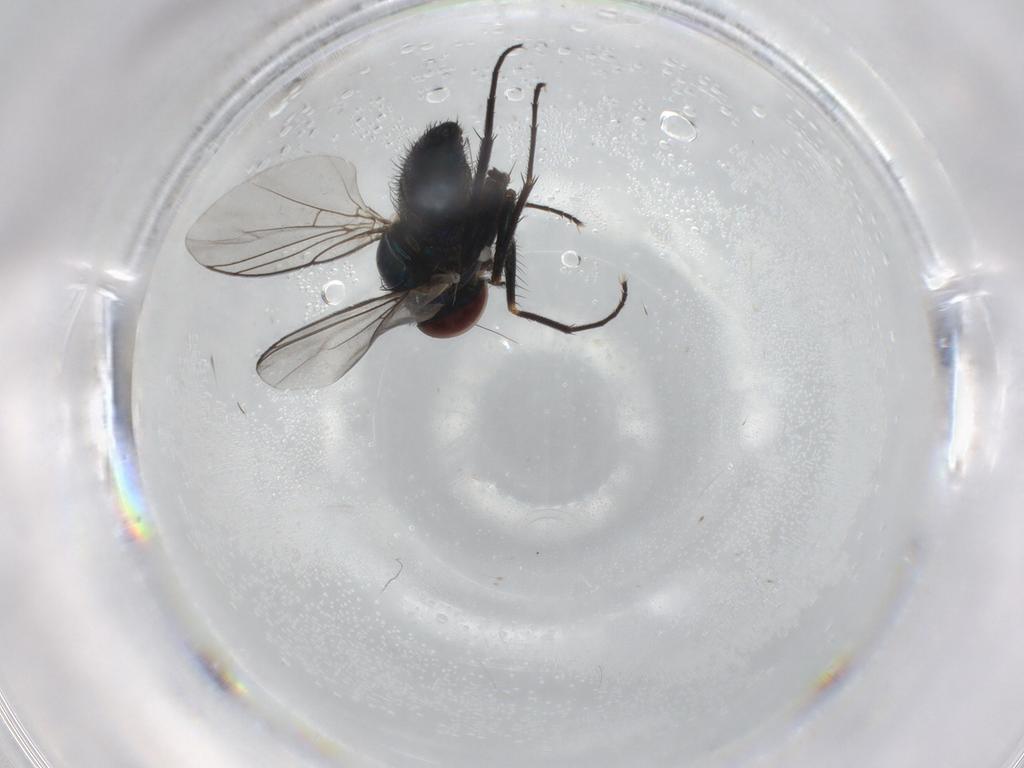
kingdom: Animalia
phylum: Arthropoda
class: Insecta
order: Diptera
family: Dolichopodidae
